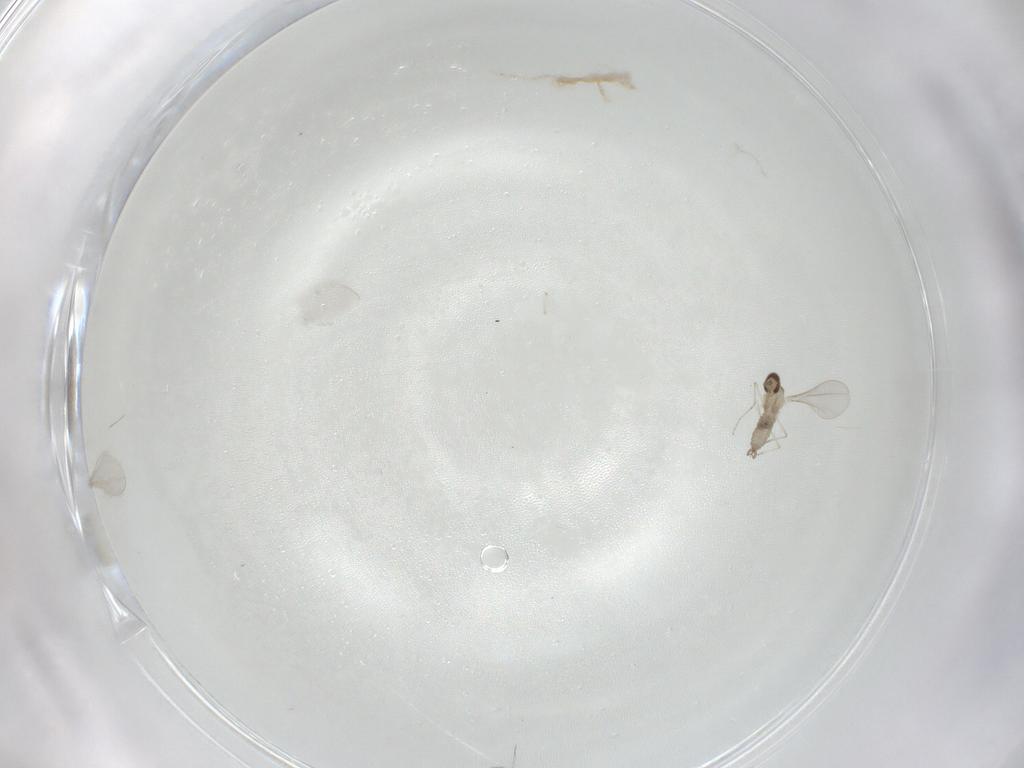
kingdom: Animalia
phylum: Arthropoda
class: Insecta
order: Diptera
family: Cecidomyiidae
